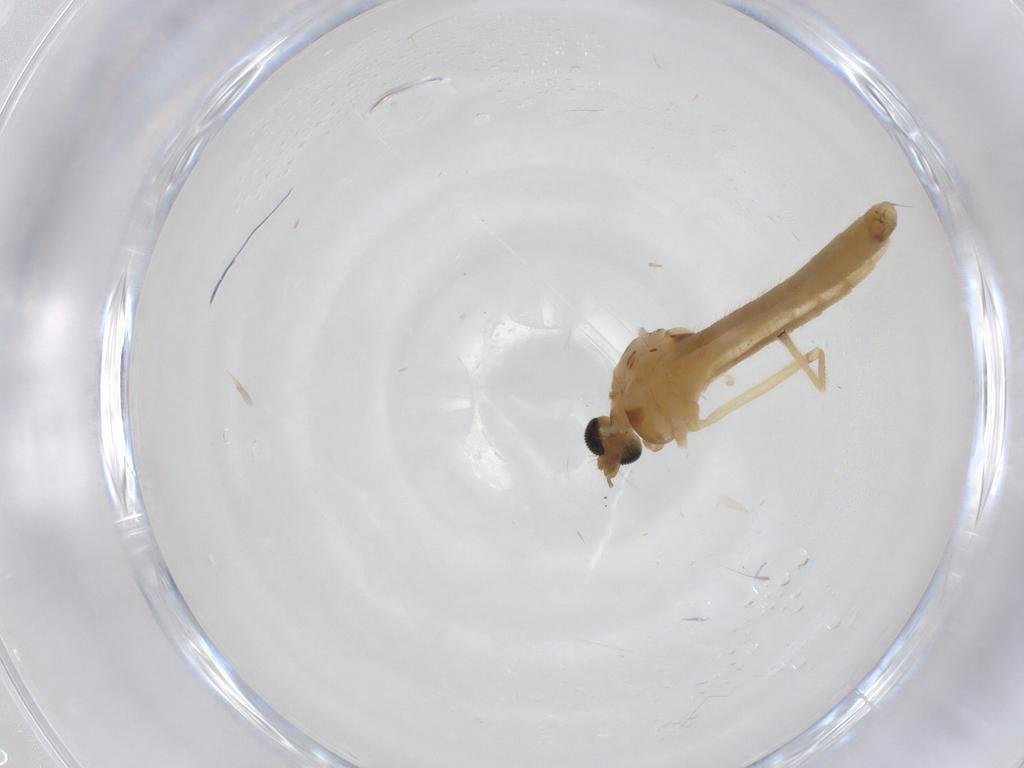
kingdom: Animalia
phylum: Arthropoda
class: Insecta
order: Diptera
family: Chironomidae
